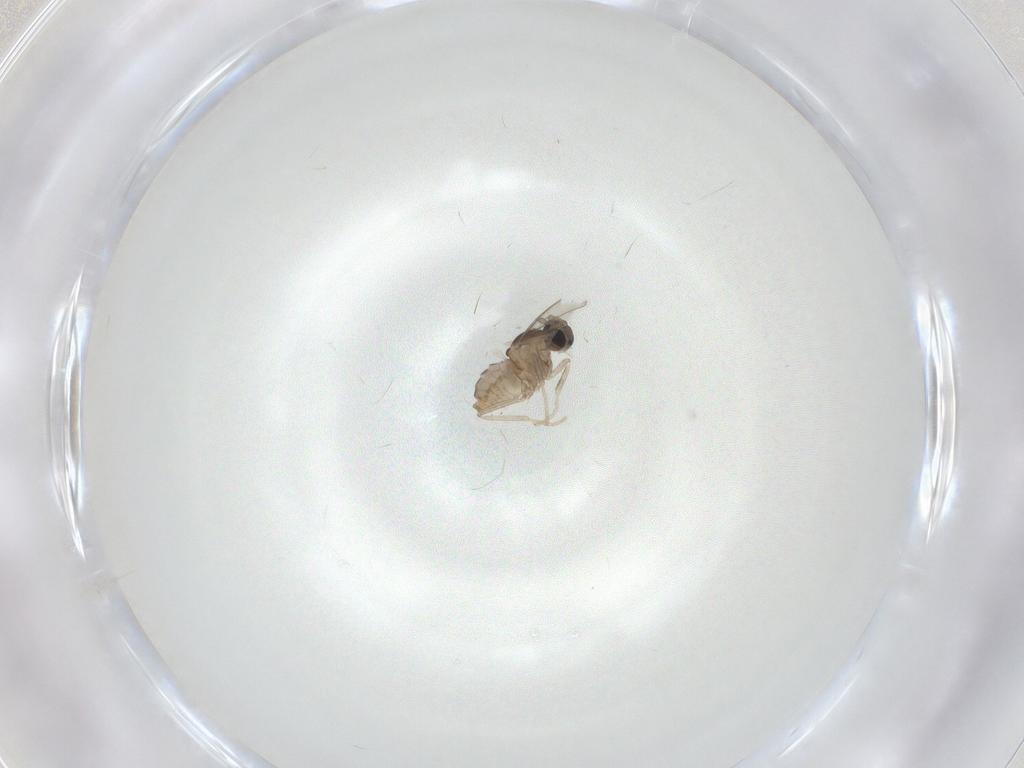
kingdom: Animalia
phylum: Arthropoda
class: Insecta
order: Diptera
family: Cecidomyiidae
